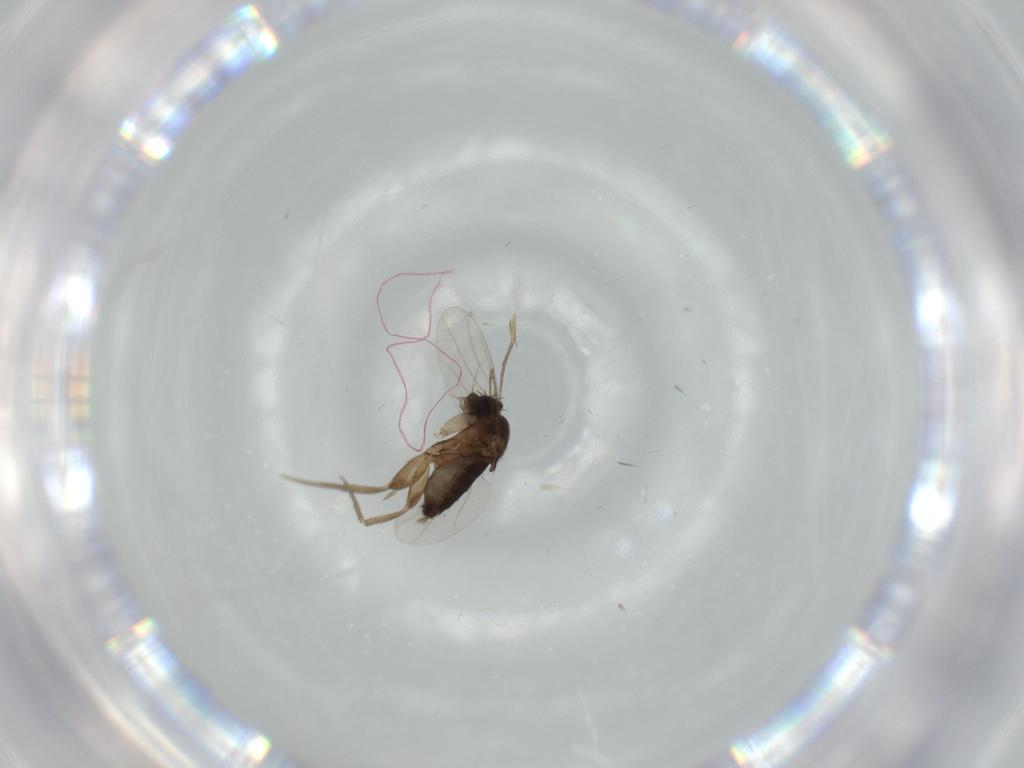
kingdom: Animalia
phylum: Arthropoda
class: Insecta
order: Diptera
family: Phoridae
